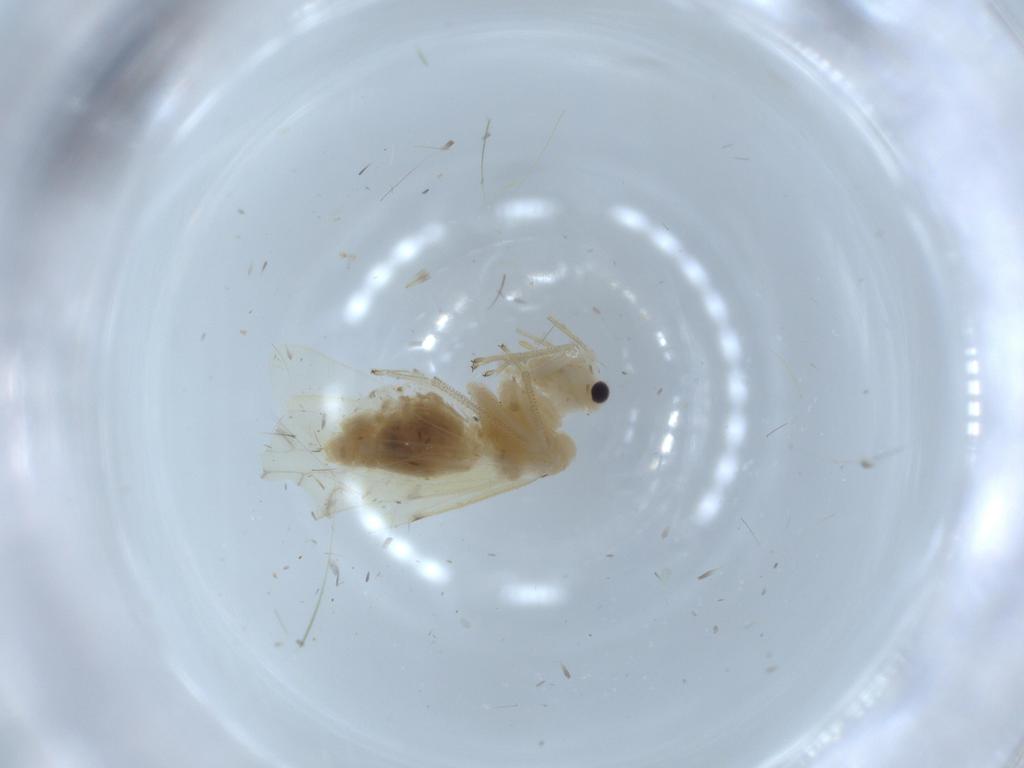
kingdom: Animalia
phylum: Arthropoda
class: Insecta
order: Psocodea
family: Caeciliusidae
